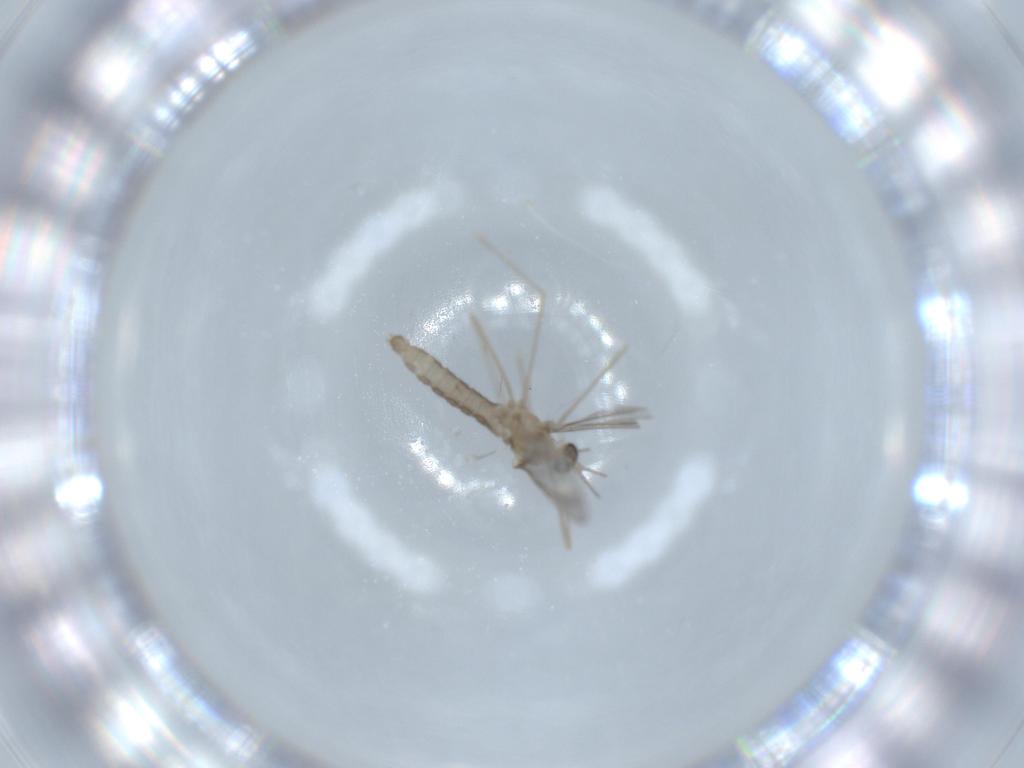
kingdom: Animalia
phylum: Arthropoda
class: Insecta
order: Diptera
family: Cecidomyiidae
